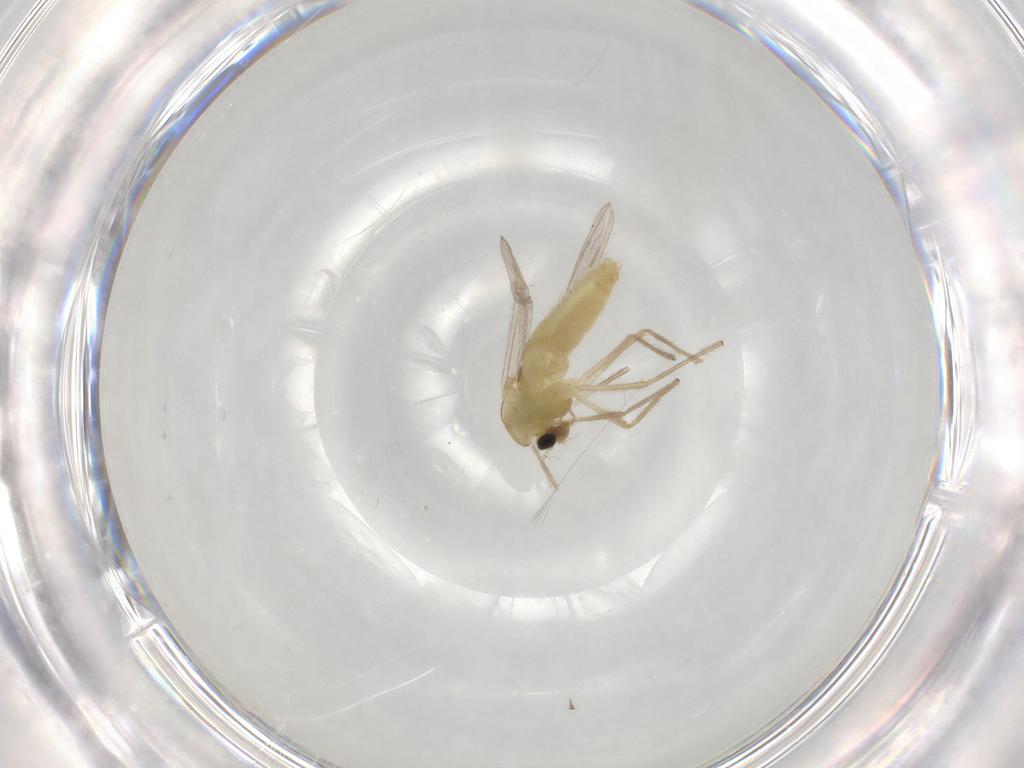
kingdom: Animalia
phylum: Arthropoda
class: Insecta
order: Diptera
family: Chironomidae
